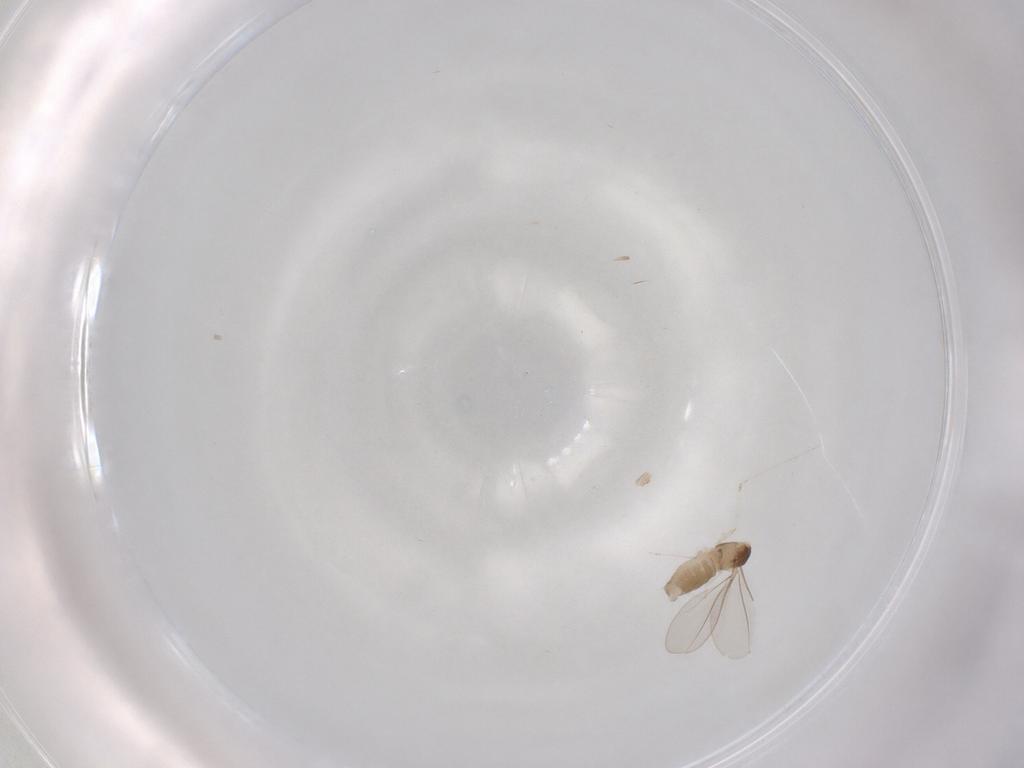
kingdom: Animalia
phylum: Arthropoda
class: Insecta
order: Diptera
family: Cecidomyiidae
